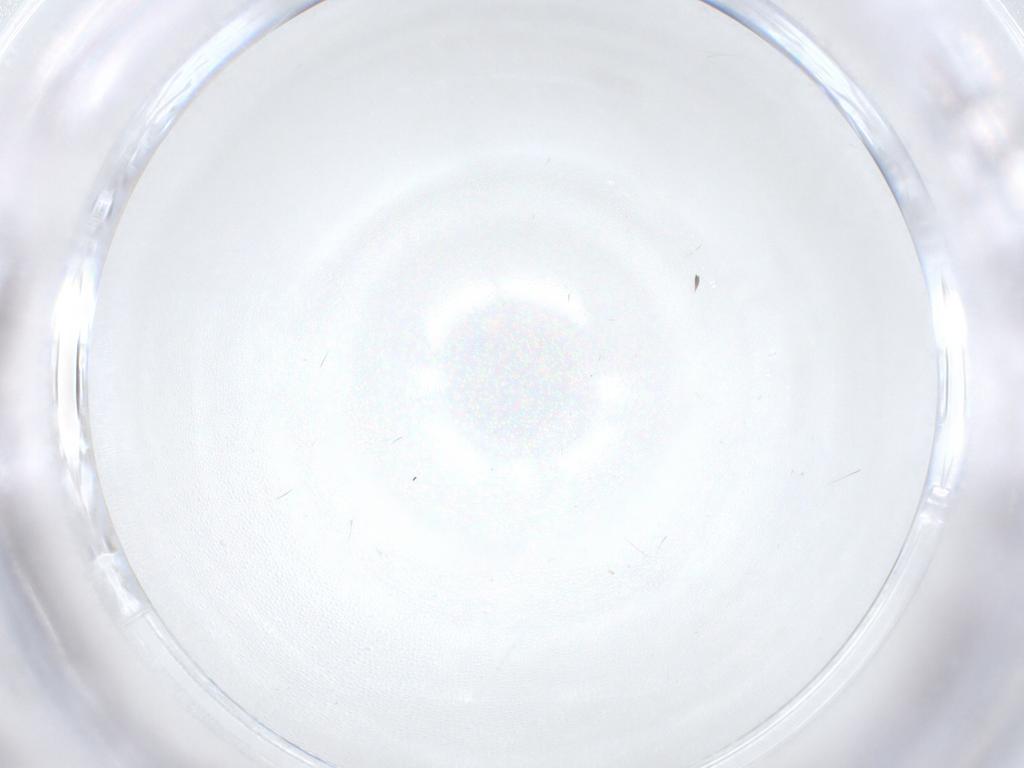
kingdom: Animalia
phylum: Arthropoda
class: Insecta
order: Diptera
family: Cecidomyiidae
